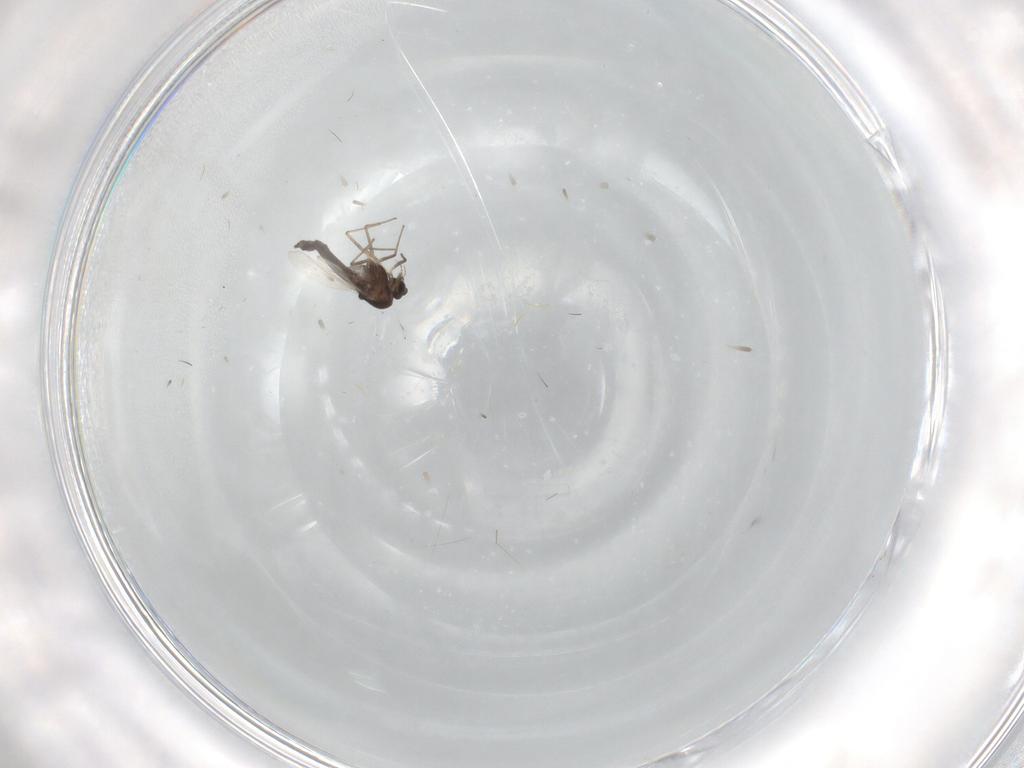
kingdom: Animalia
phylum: Arthropoda
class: Insecta
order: Diptera
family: Chironomidae
